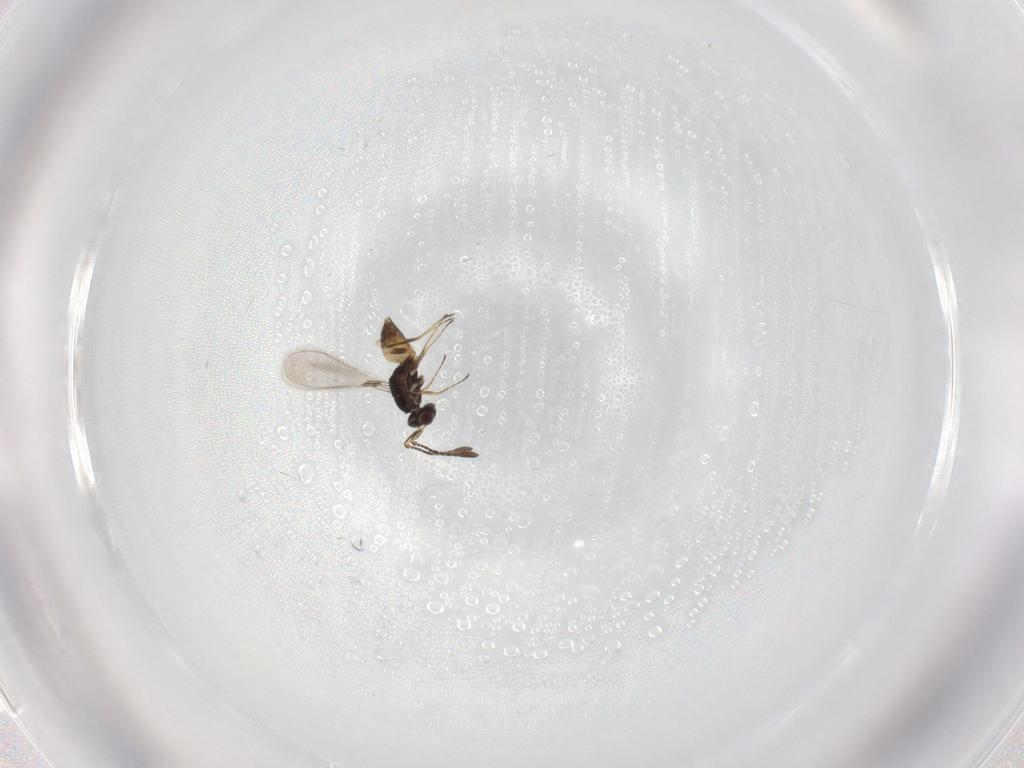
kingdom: Animalia
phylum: Arthropoda
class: Insecta
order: Hymenoptera
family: Mymaridae
